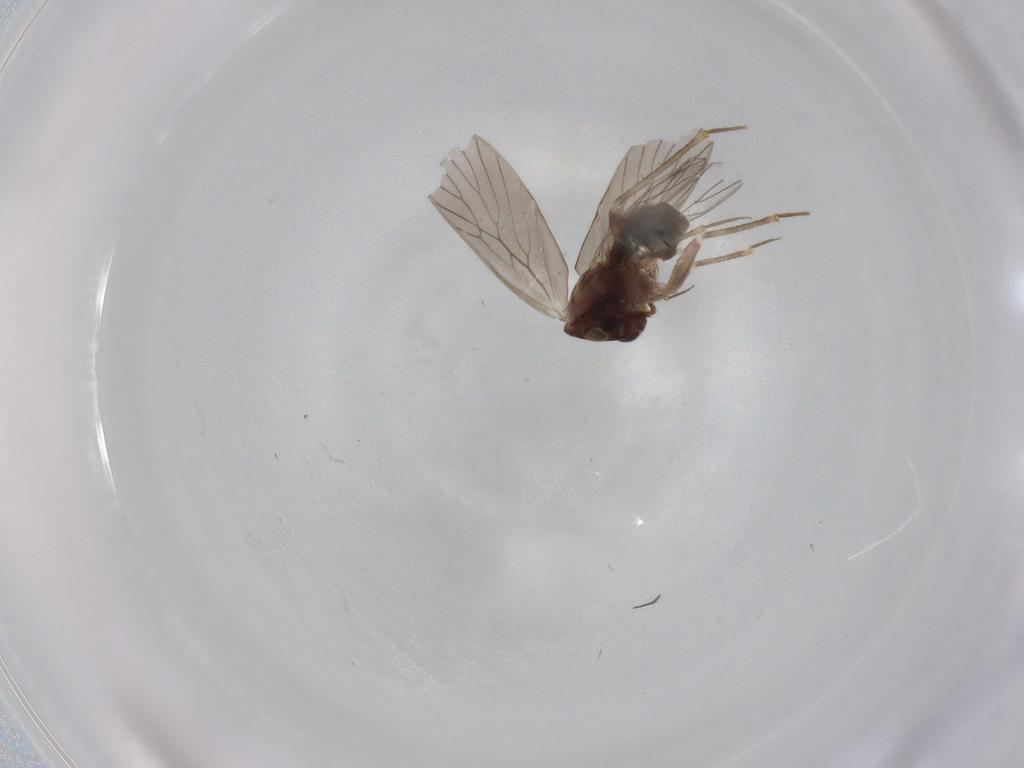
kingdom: Animalia
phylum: Arthropoda
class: Insecta
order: Psocodea
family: Lepidopsocidae
